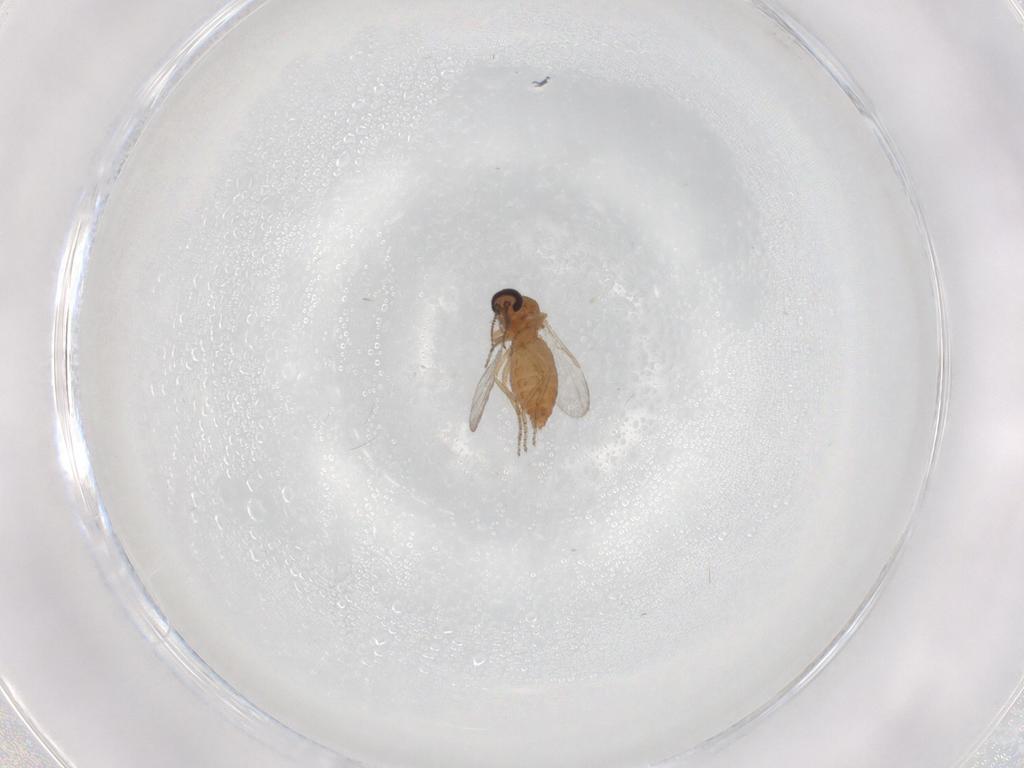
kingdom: Animalia
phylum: Arthropoda
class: Insecta
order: Diptera
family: Ceratopogonidae
